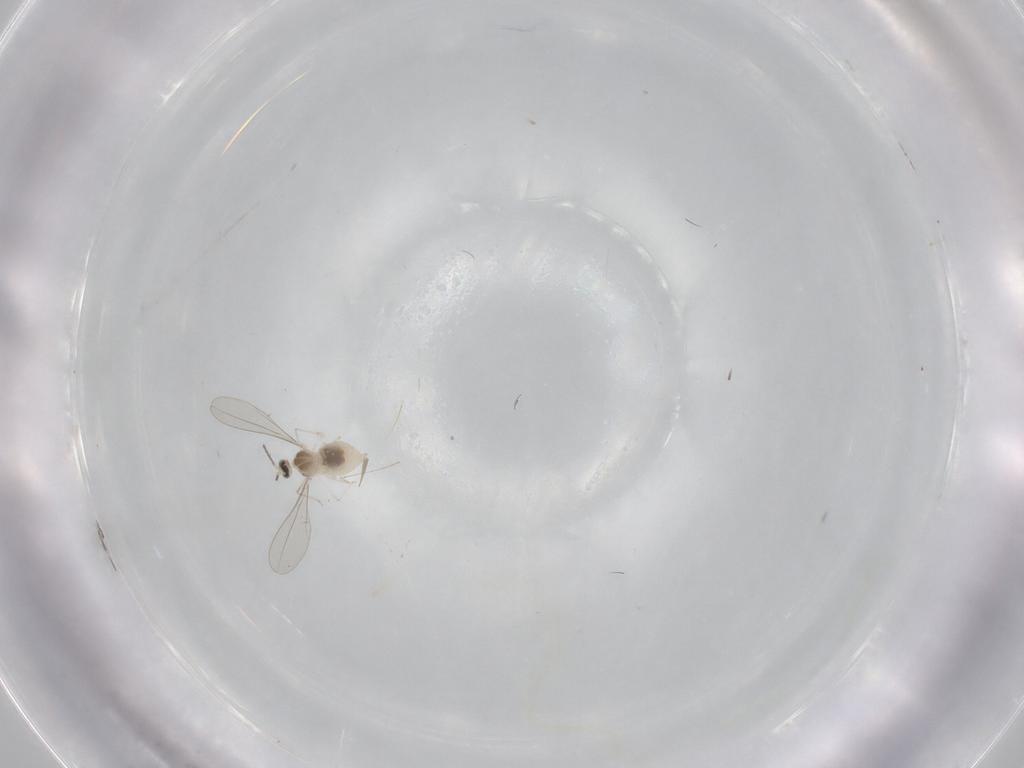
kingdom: Animalia
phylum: Arthropoda
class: Insecta
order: Diptera
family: Cecidomyiidae
